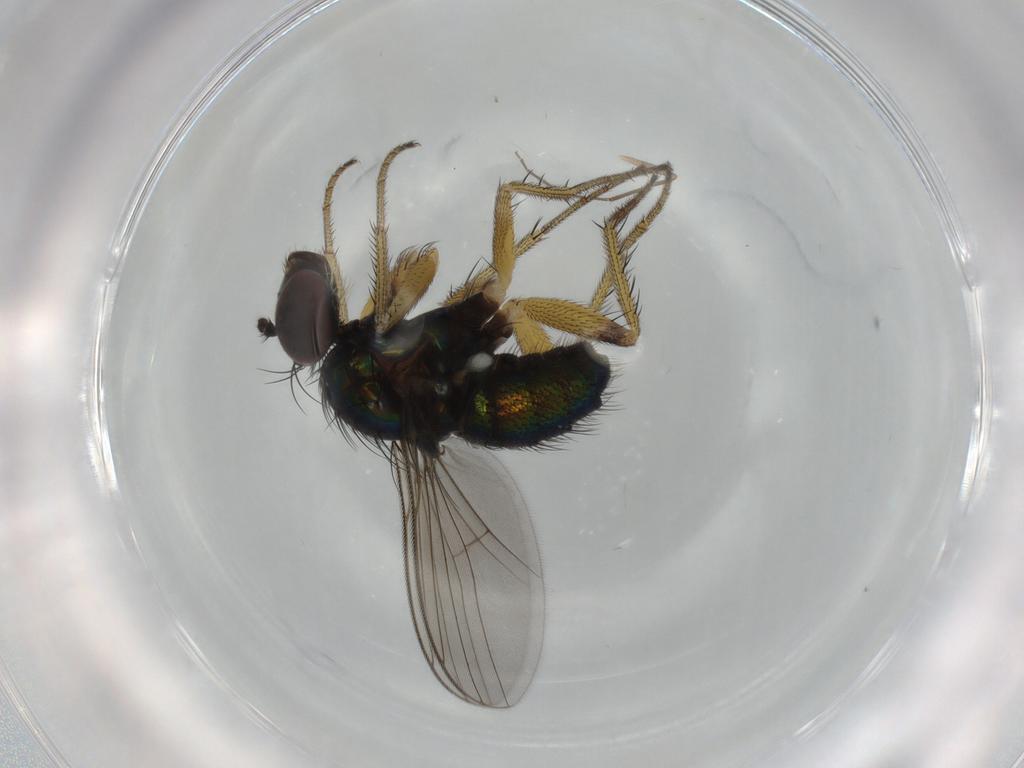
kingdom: Animalia
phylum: Arthropoda
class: Insecta
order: Diptera
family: Dolichopodidae
